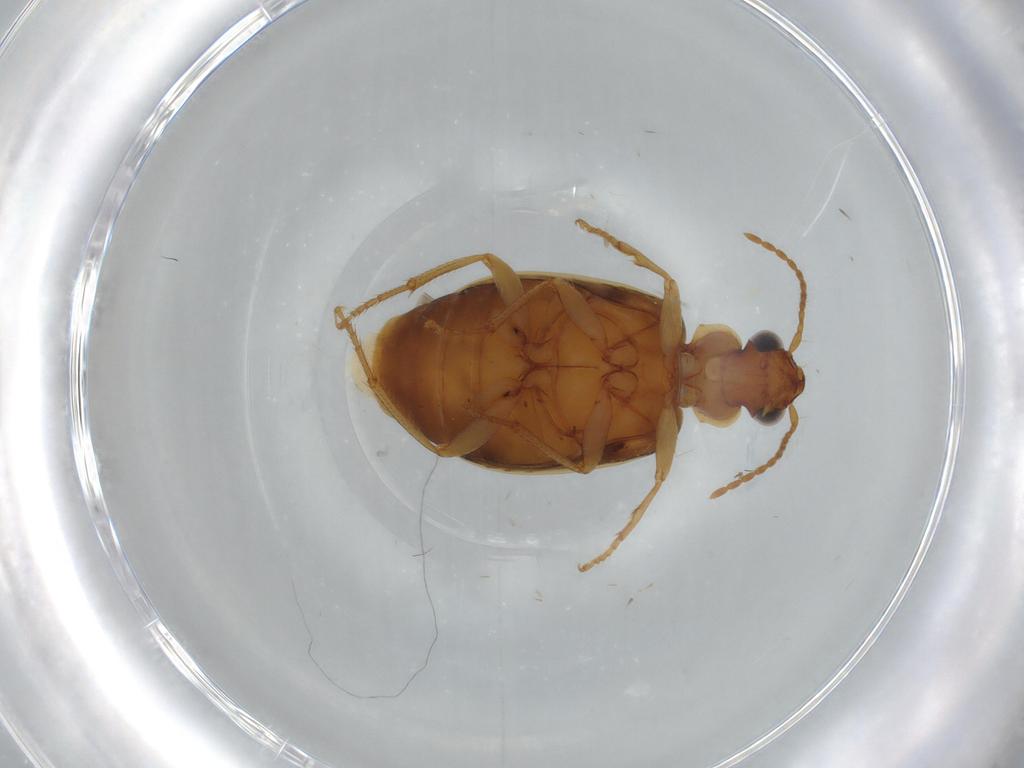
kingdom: Animalia
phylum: Arthropoda
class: Insecta
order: Coleoptera
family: Carabidae
